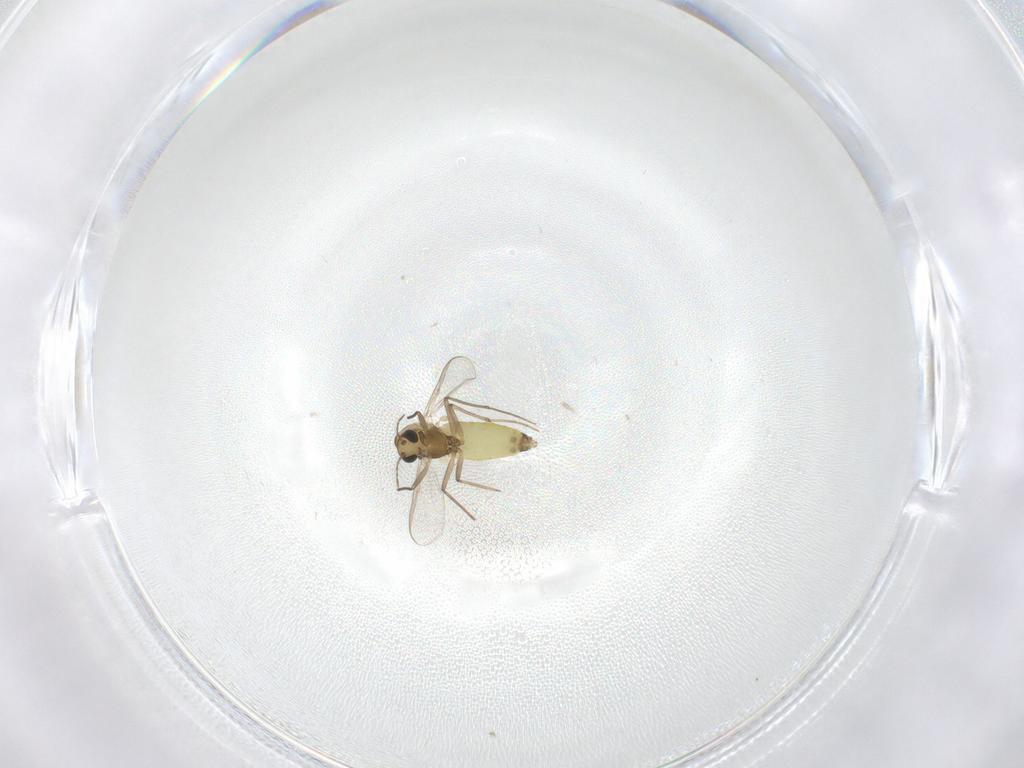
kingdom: Animalia
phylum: Arthropoda
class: Insecta
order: Diptera
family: Chironomidae
